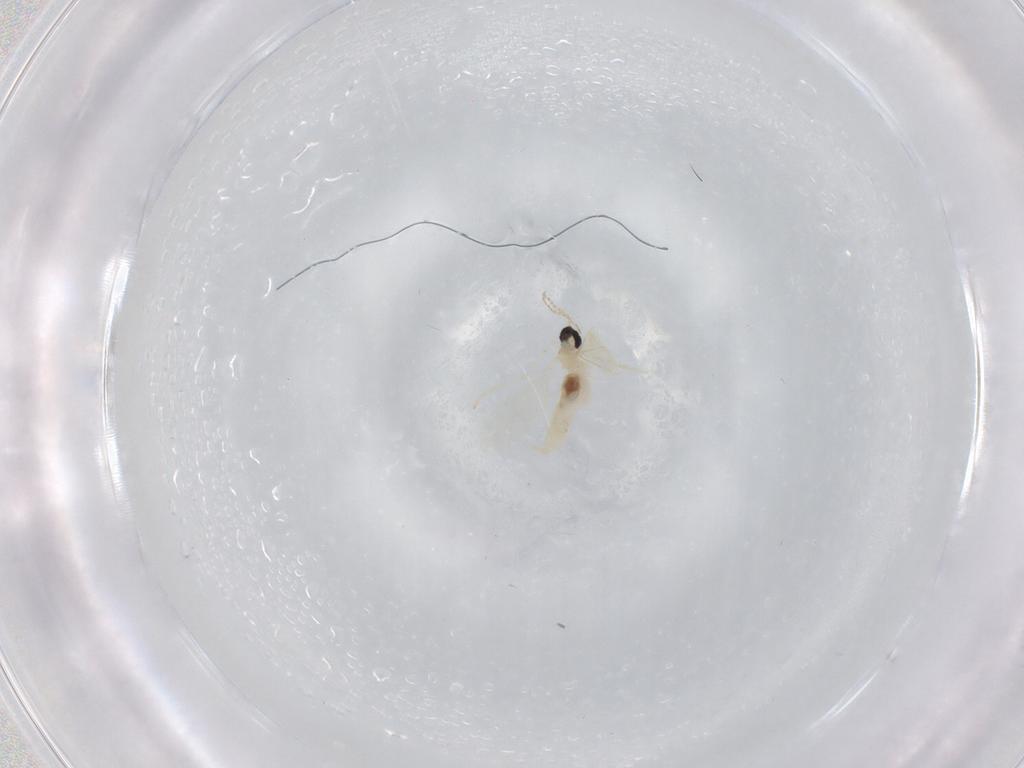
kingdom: Animalia
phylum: Arthropoda
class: Insecta
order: Diptera
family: Cecidomyiidae
